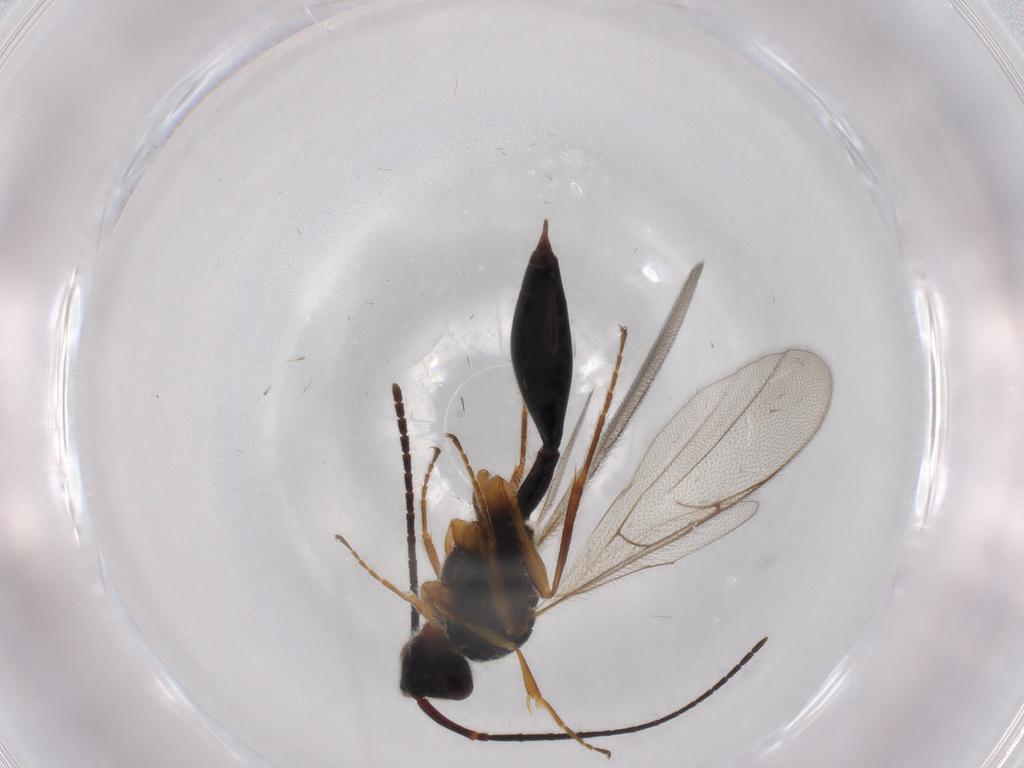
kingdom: Animalia
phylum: Arthropoda
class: Insecta
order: Hymenoptera
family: Diapriidae
